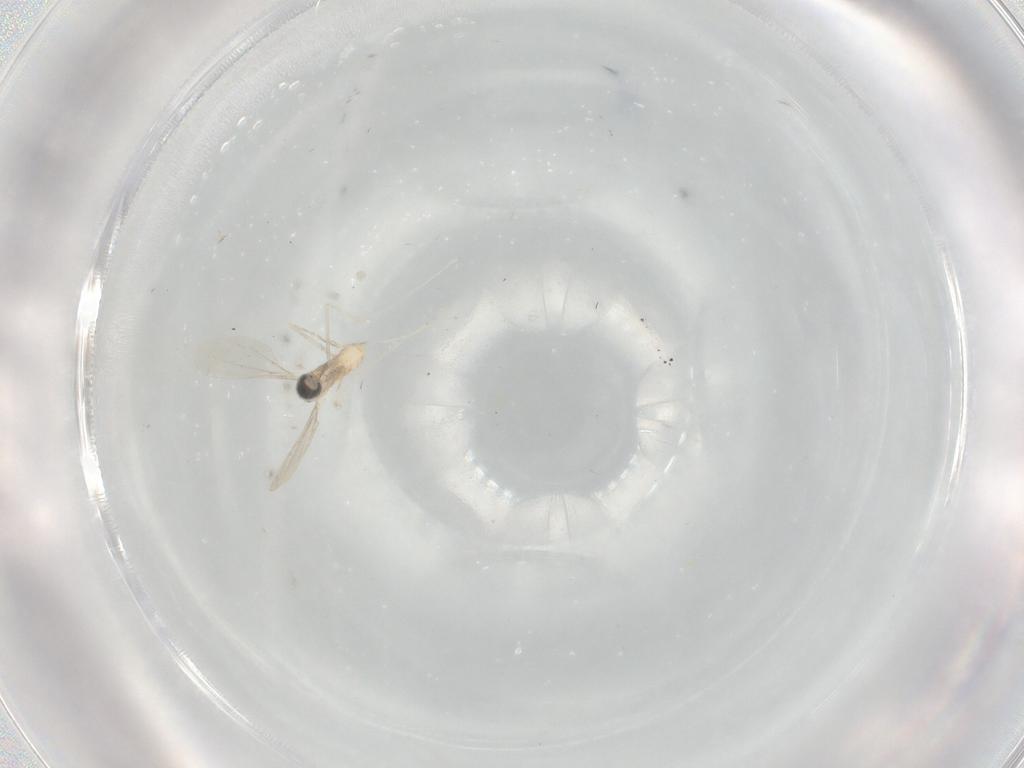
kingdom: Animalia
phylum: Arthropoda
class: Insecta
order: Diptera
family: Cecidomyiidae
